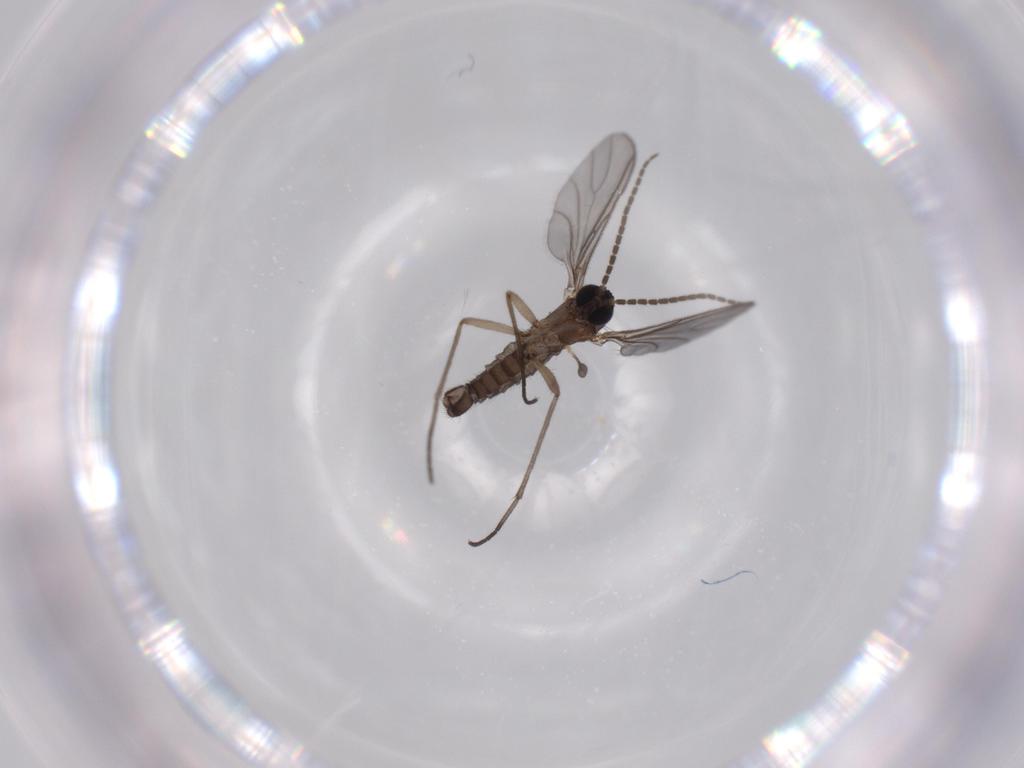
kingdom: Animalia
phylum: Arthropoda
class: Insecta
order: Diptera
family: Sciaridae
